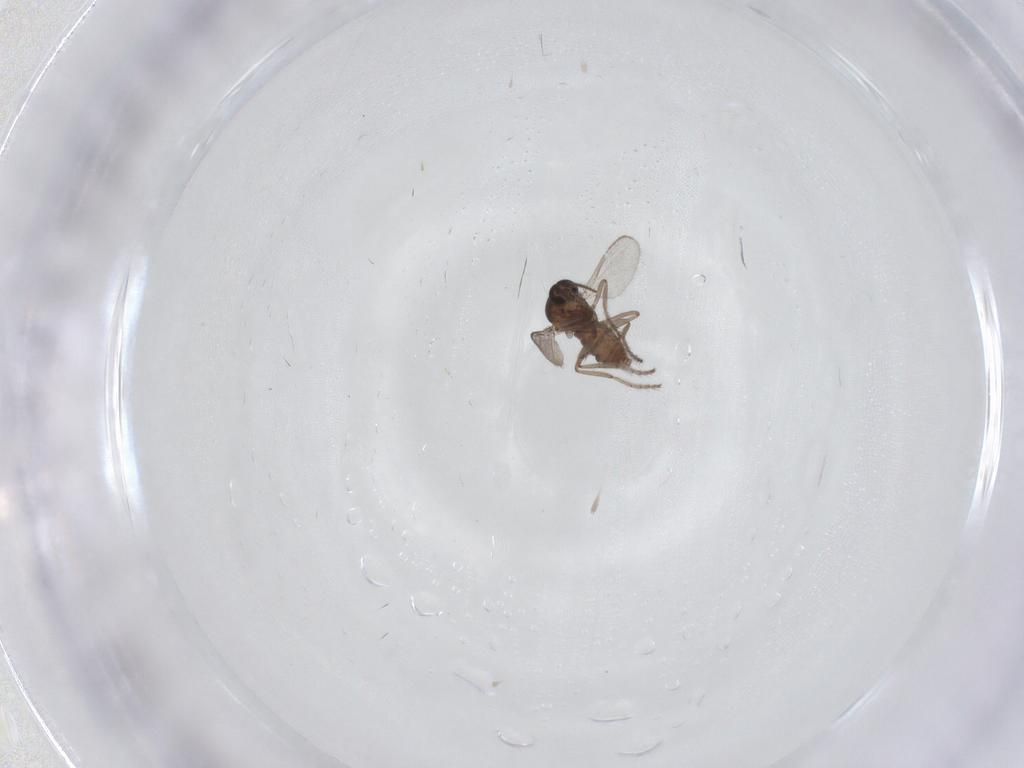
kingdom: Animalia
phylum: Arthropoda
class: Insecta
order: Diptera
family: Ceratopogonidae
